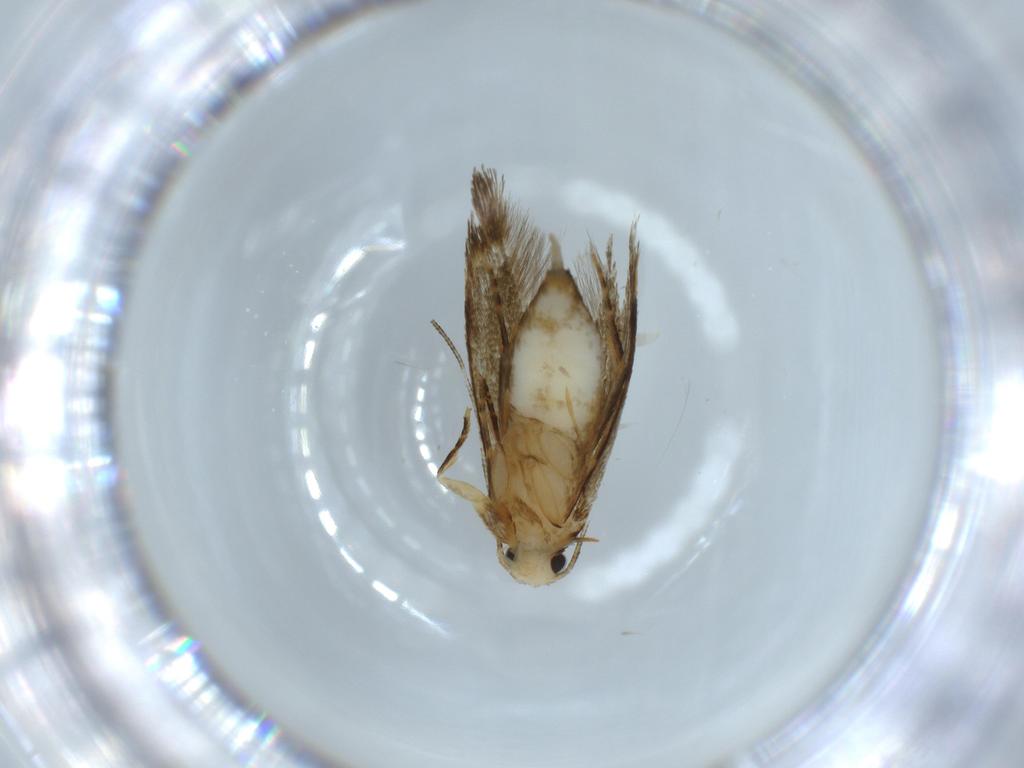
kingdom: Animalia
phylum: Arthropoda
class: Insecta
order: Lepidoptera
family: Tineidae
